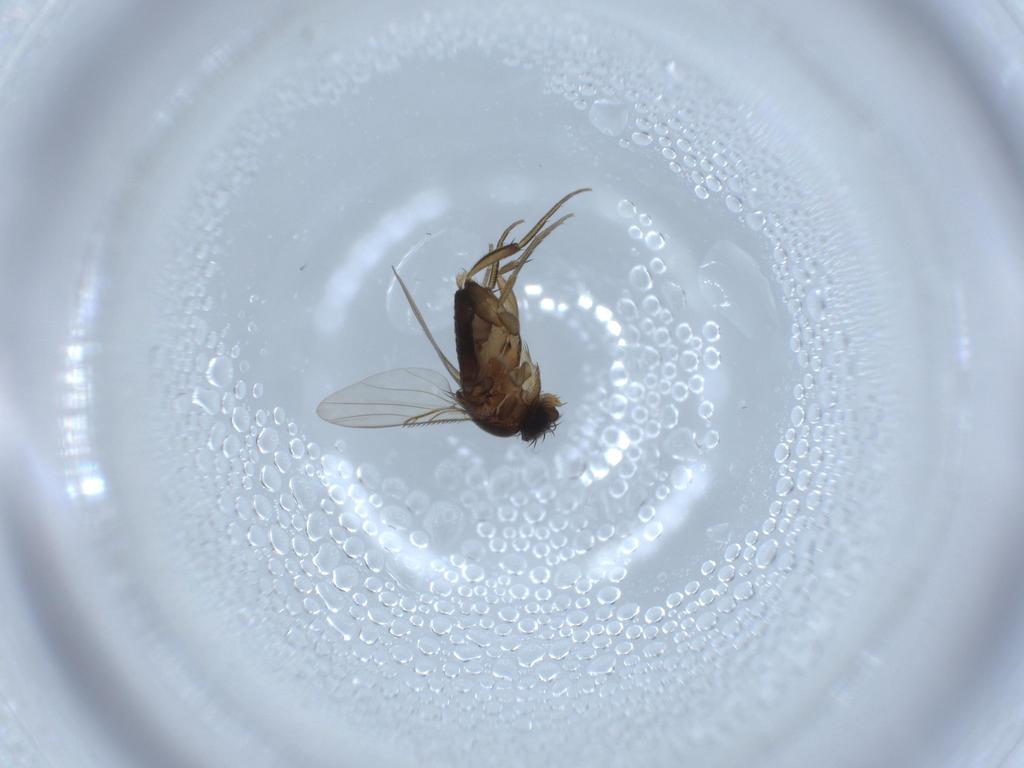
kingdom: Animalia
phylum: Arthropoda
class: Insecta
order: Diptera
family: Phoridae
